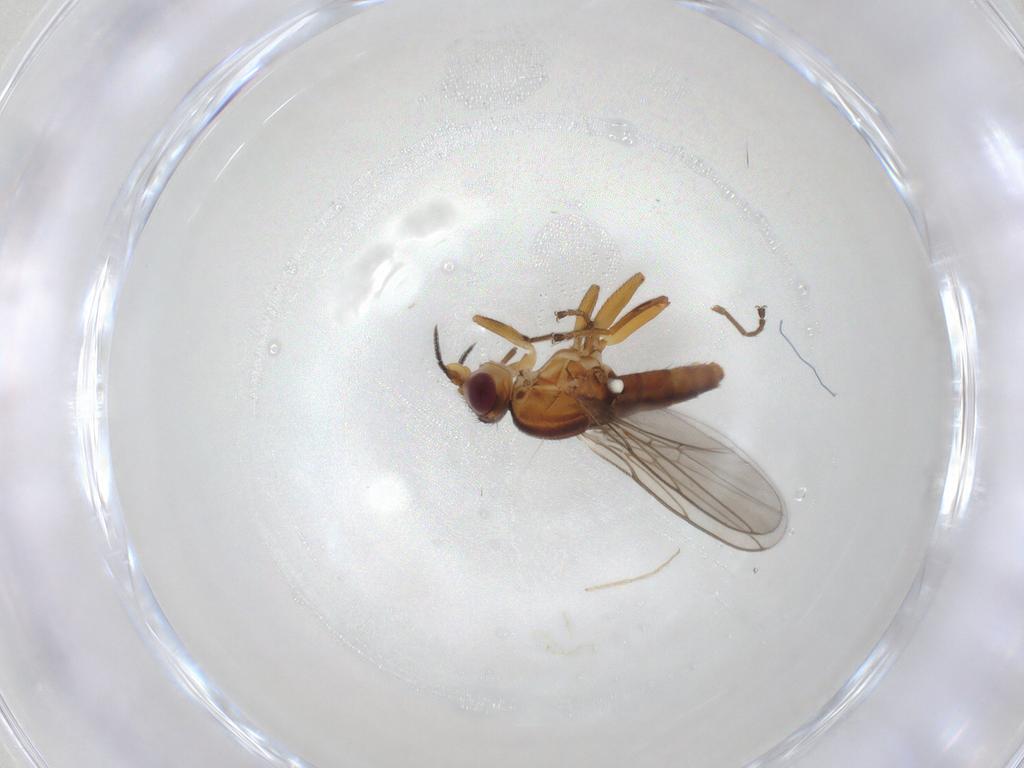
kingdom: Animalia
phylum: Arthropoda
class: Insecta
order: Diptera
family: Chloropidae
